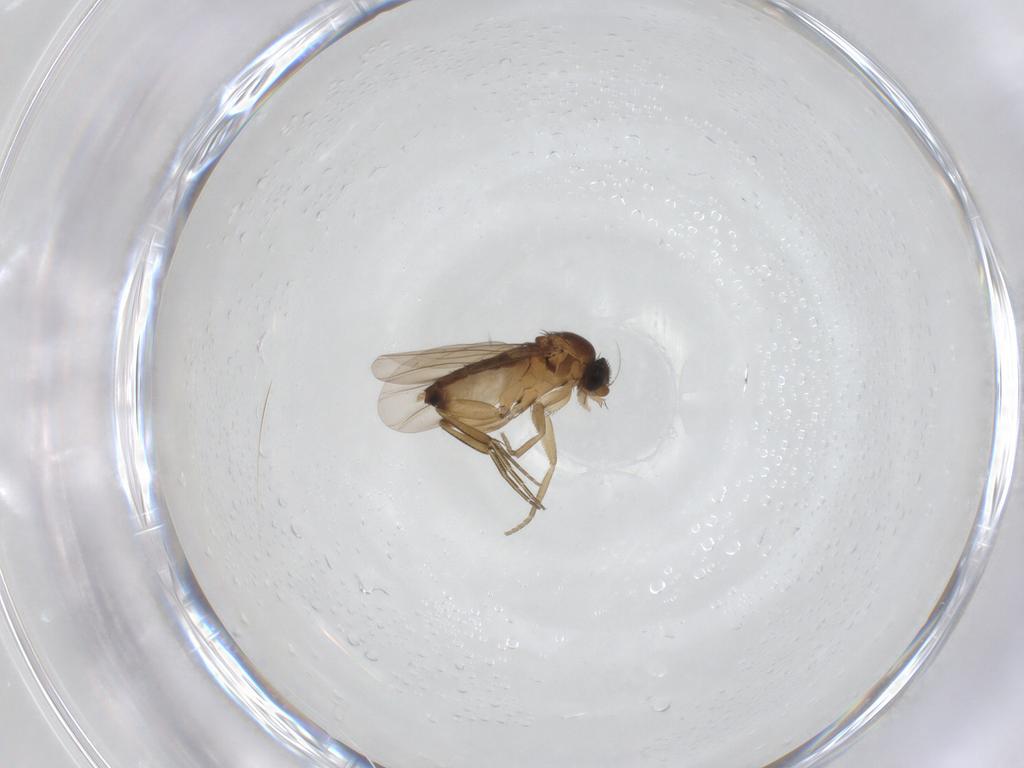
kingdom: Animalia
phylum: Arthropoda
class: Insecta
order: Diptera
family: Phoridae
